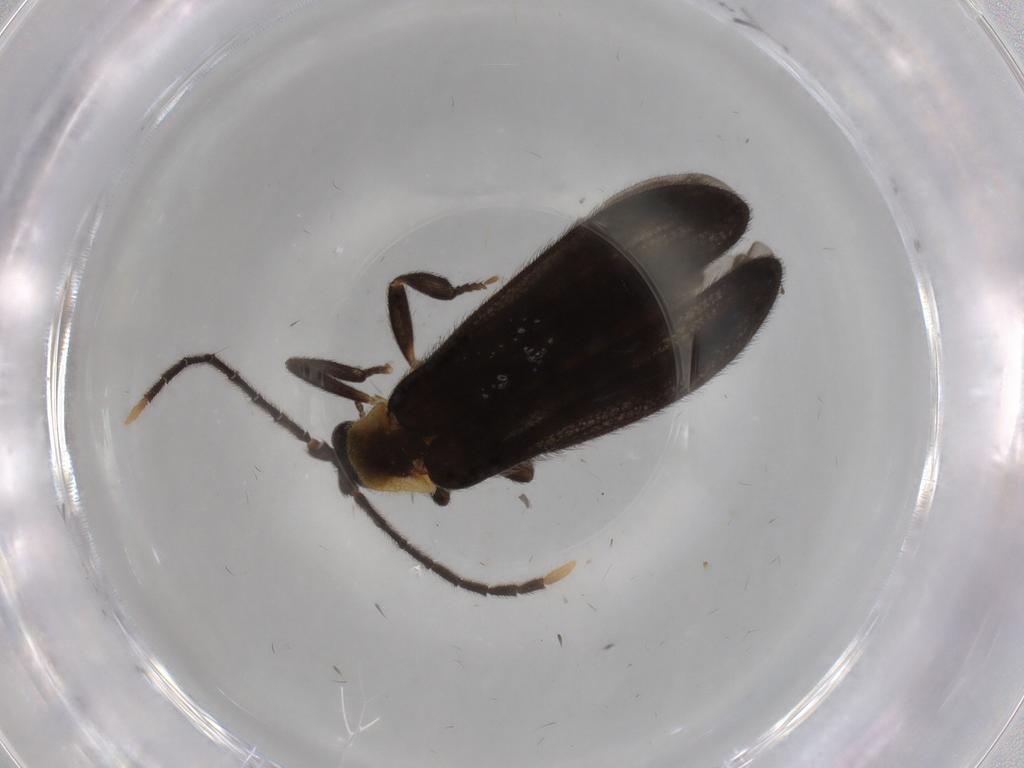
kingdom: Animalia
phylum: Arthropoda
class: Insecta
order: Coleoptera
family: Lycidae
